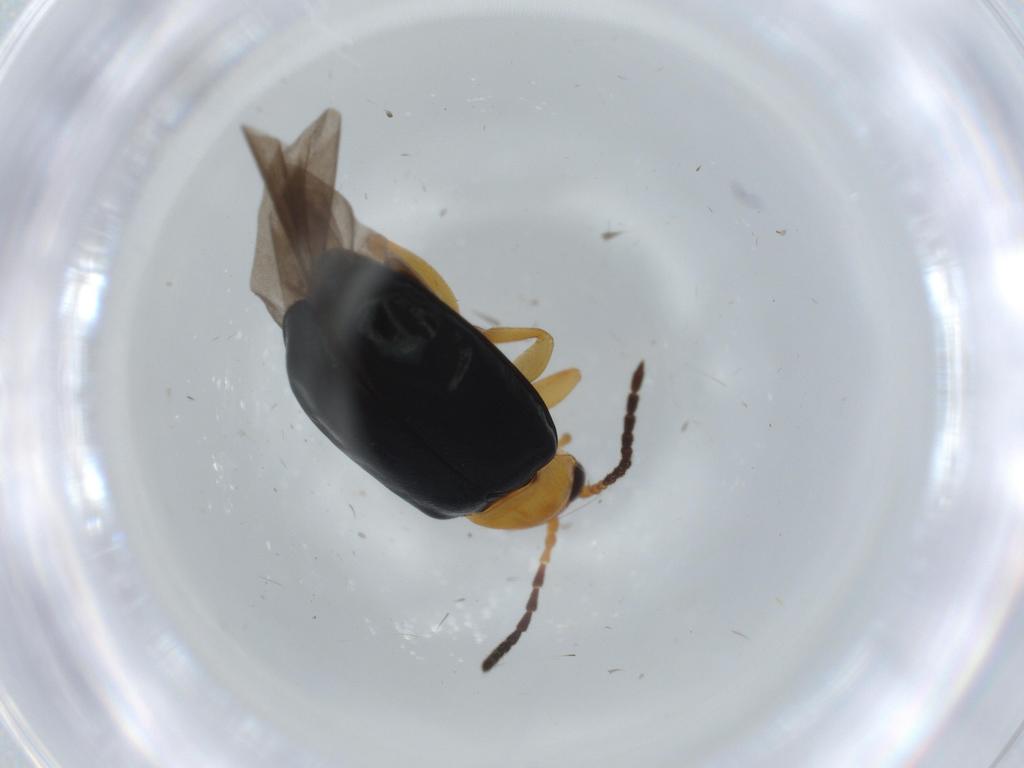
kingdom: Animalia
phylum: Arthropoda
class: Insecta
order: Coleoptera
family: Chrysomelidae
